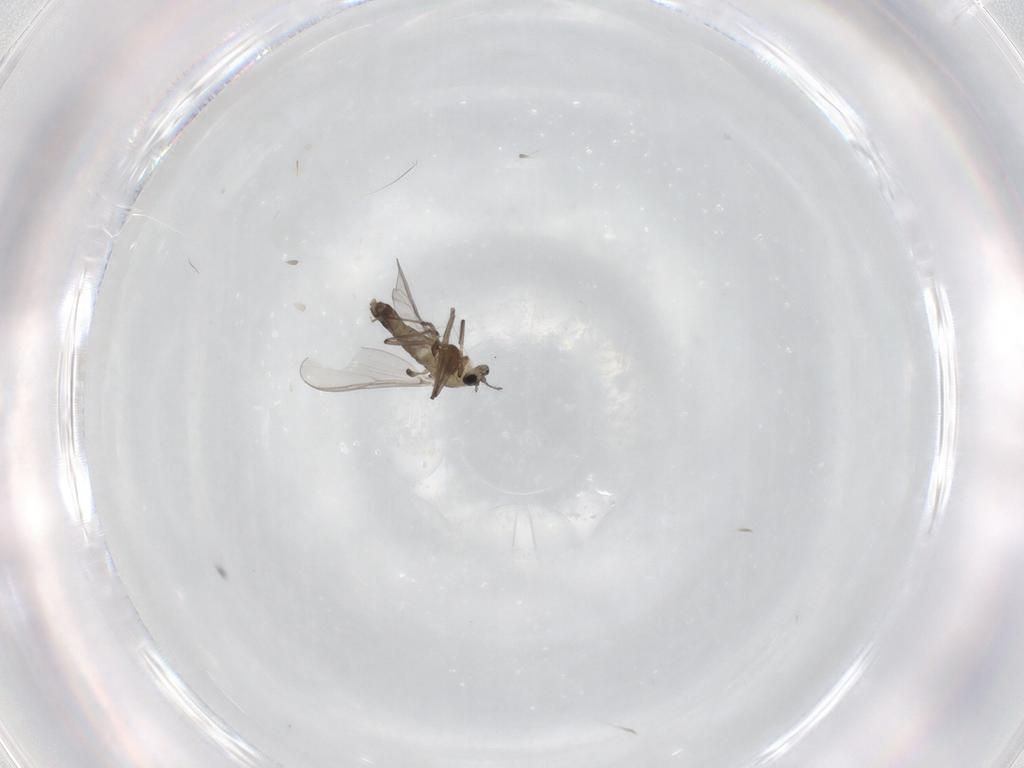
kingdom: Animalia
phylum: Arthropoda
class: Insecta
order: Diptera
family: Chironomidae
